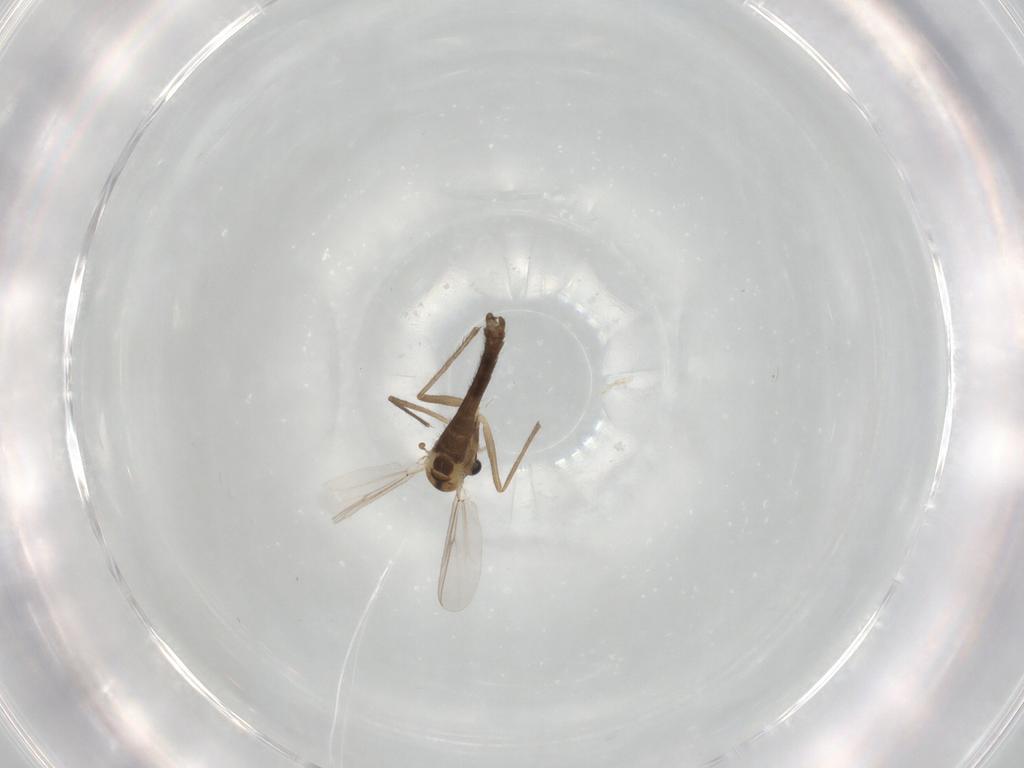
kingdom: Animalia
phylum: Arthropoda
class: Insecta
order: Diptera
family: Chironomidae
